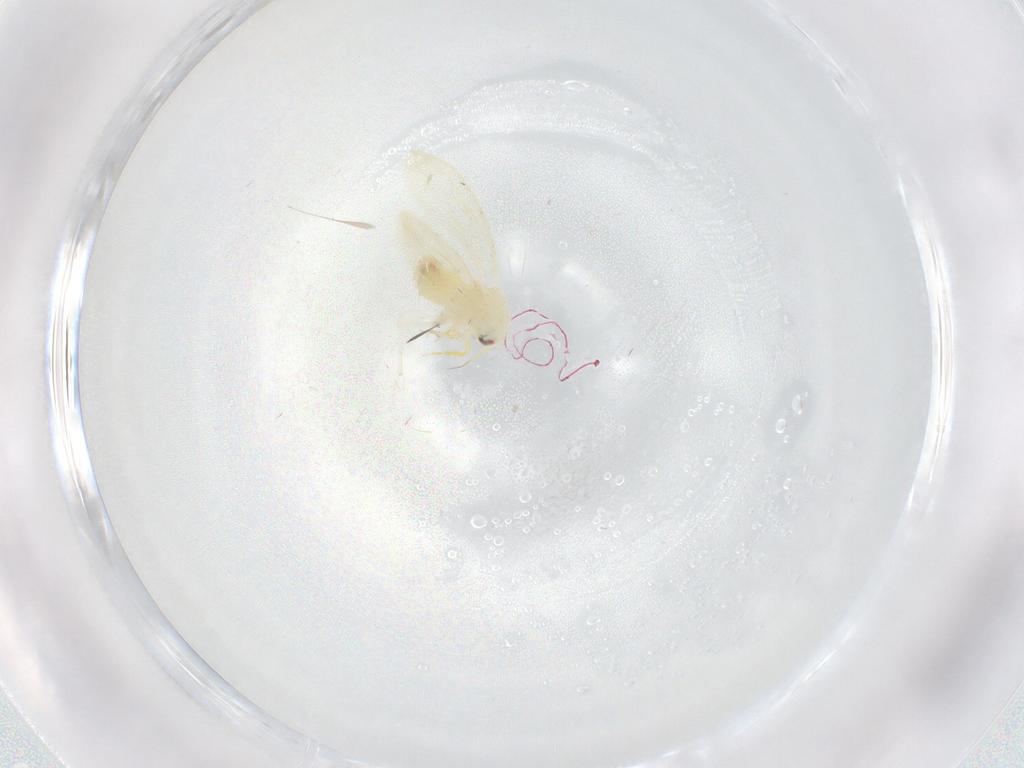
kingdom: Animalia
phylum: Arthropoda
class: Insecta
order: Hemiptera
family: Aleyrodidae
